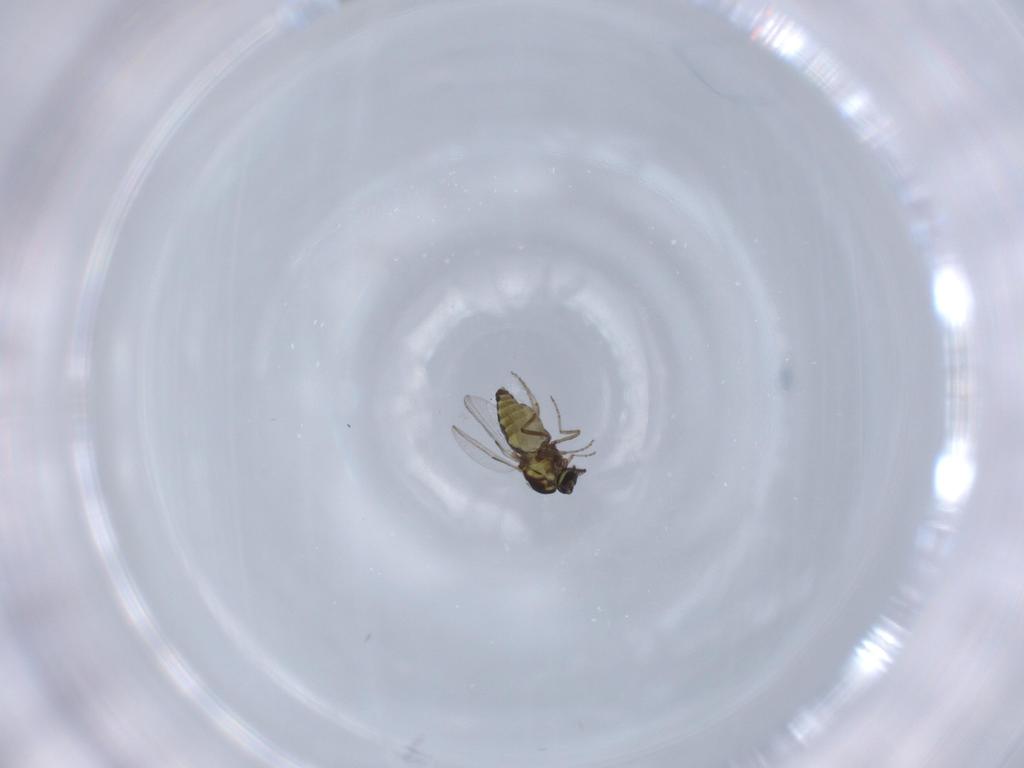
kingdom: Animalia
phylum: Arthropoda
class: Insecta
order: Diptera
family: Ceratopogonidae
